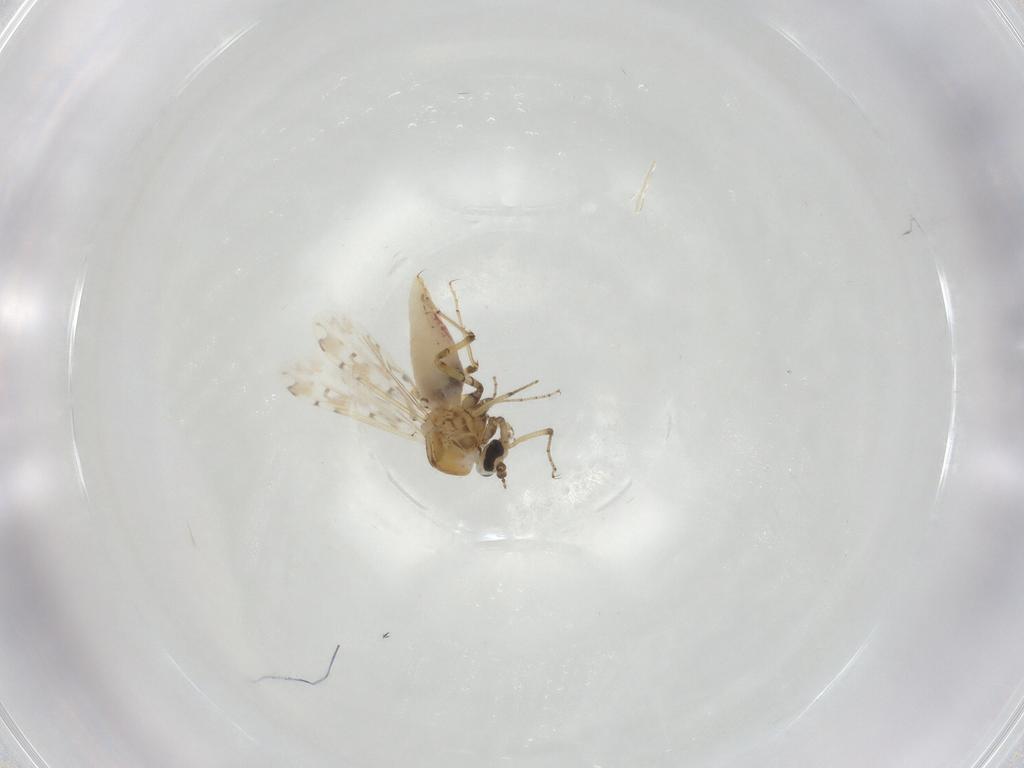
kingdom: Animalia
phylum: Arthropoda
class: Insecta
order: Diptera
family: Ceratopogonidae
